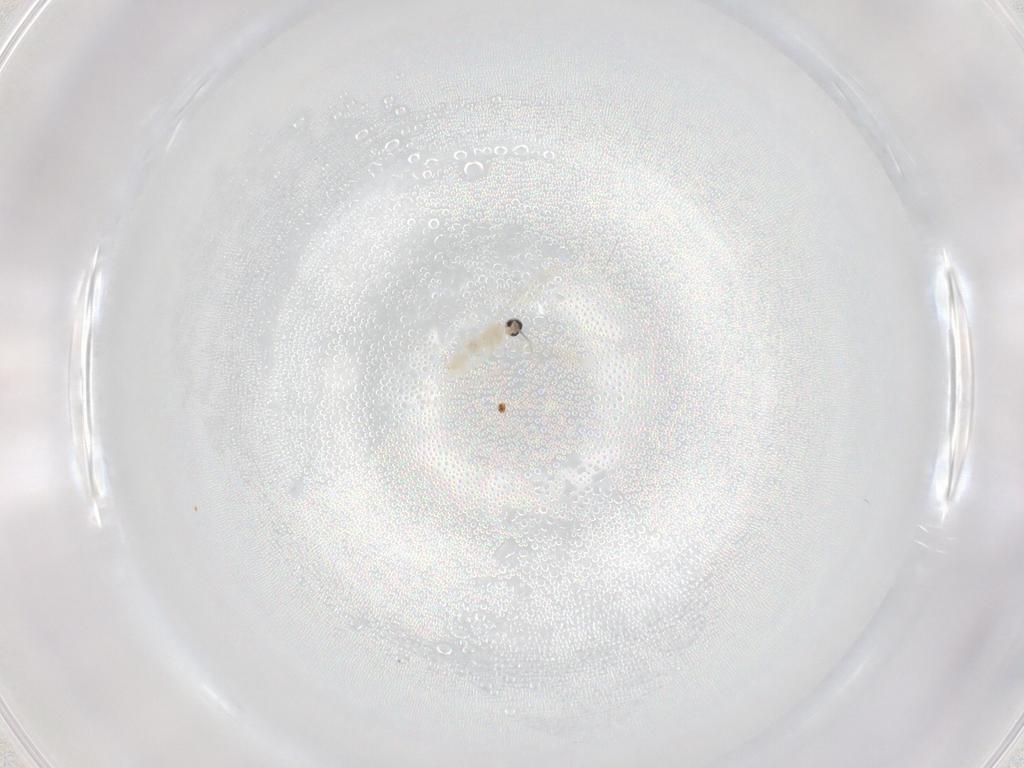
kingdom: Animalia
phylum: Arthropoda
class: Insecta
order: Diptera
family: Cecidomyiidae
